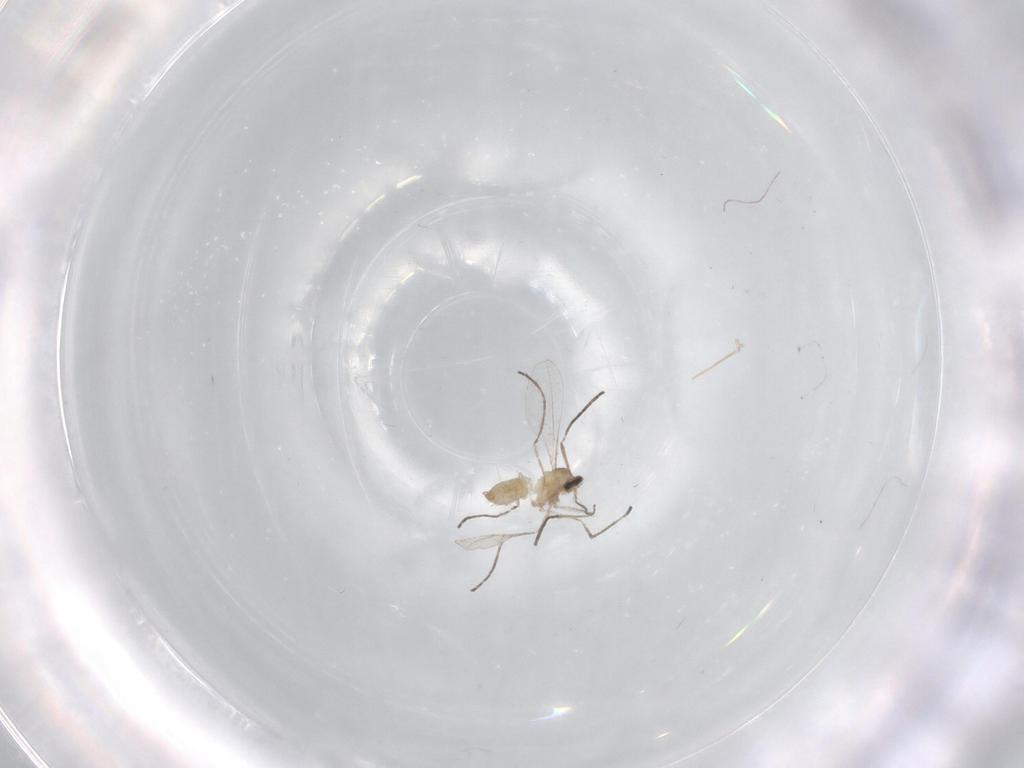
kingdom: Animalia
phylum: Arthropoda
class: Insecta
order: Diptera
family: Cecidomyiidae
